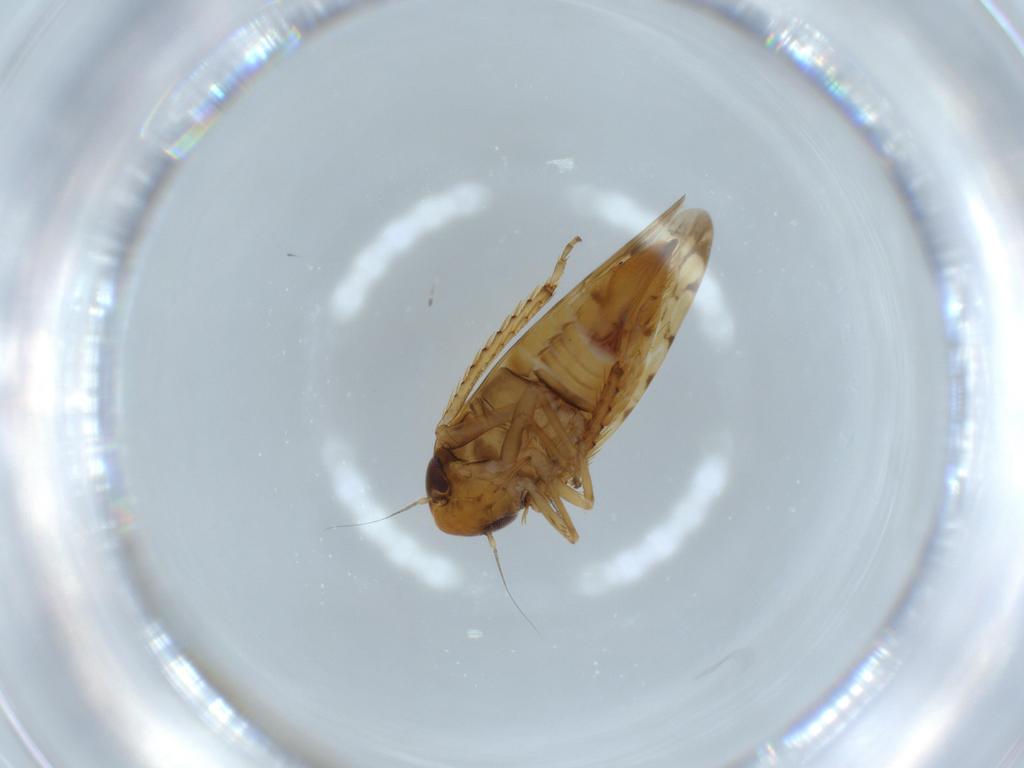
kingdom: Animalia
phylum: Arthropoda
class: Insecta
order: Hemiptera
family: Cicadellidae
